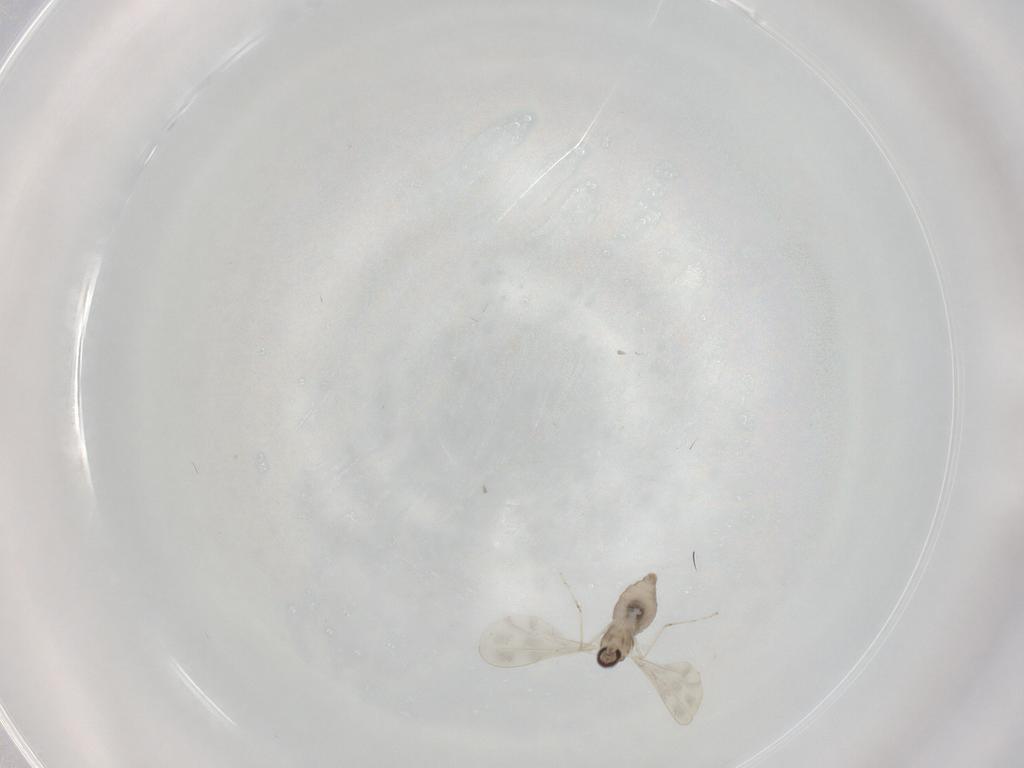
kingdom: Animalia
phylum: Arthropoda
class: Insecta
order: Diptera
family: Cecidomyiidae
